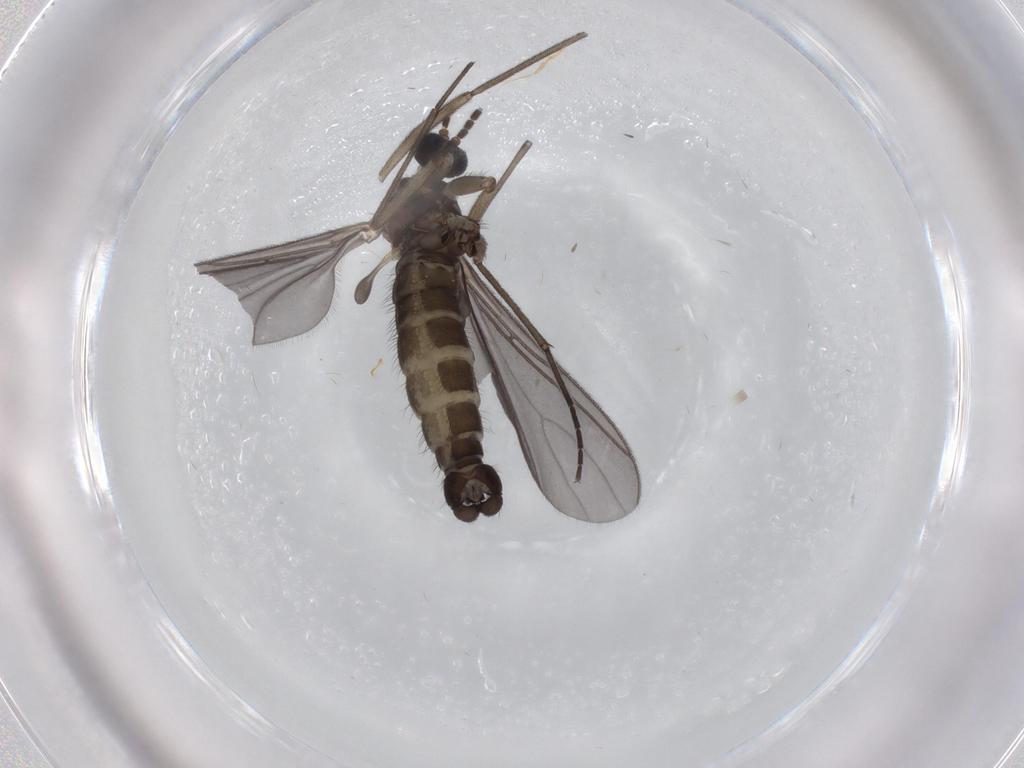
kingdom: Animalia
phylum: Arthropoda
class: Insecta
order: Diptera
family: Sciaridae
